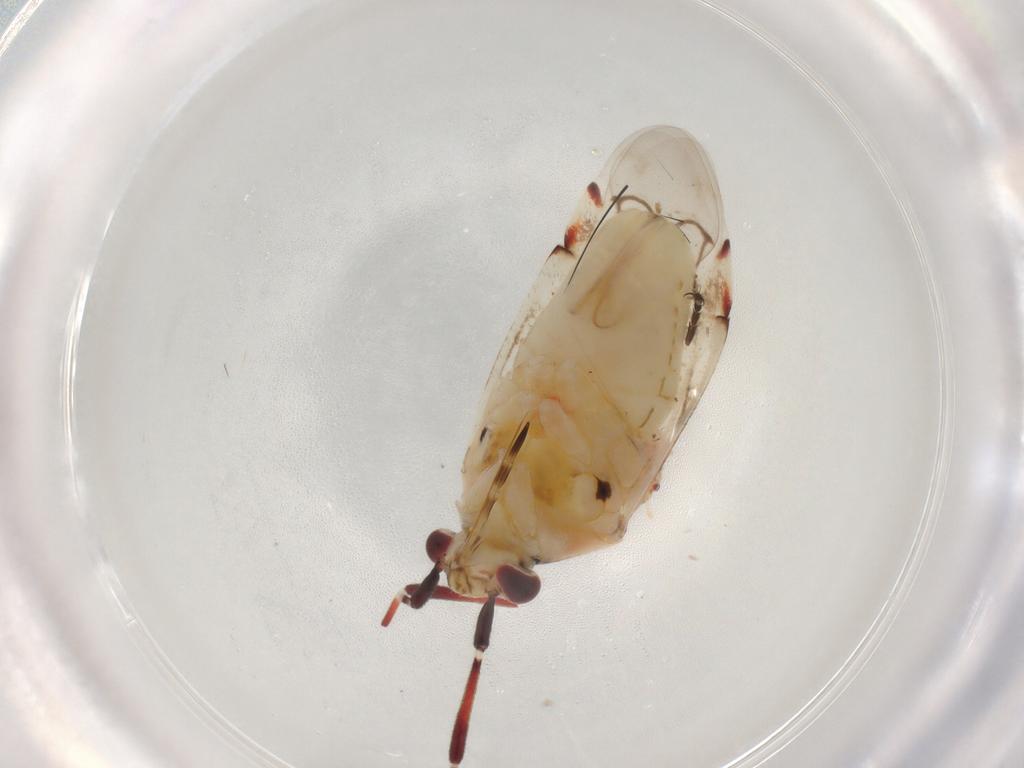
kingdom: Animalia
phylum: Arthropoda
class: Insecta
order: Hemiptera
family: Miridae
